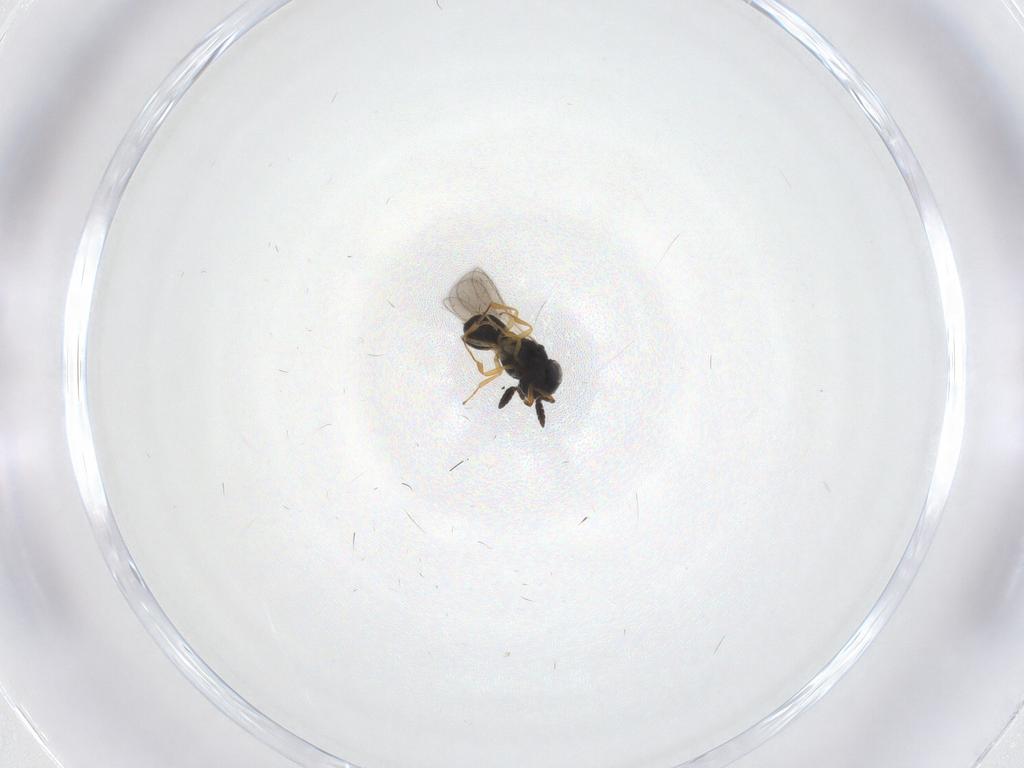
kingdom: Animalia
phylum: Arthropoda
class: Insecta
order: Hymenoptera
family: Scelionidae
